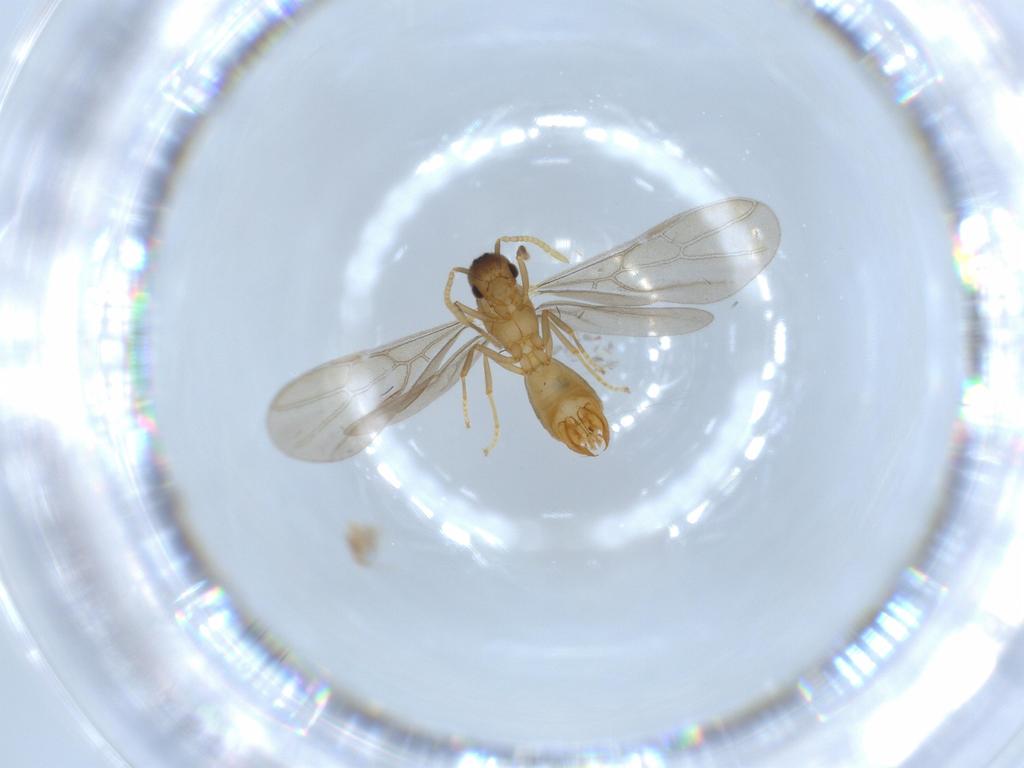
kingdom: Animalia
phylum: Arthropoda
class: Insecta
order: Hymenoptera
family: Formicidae
